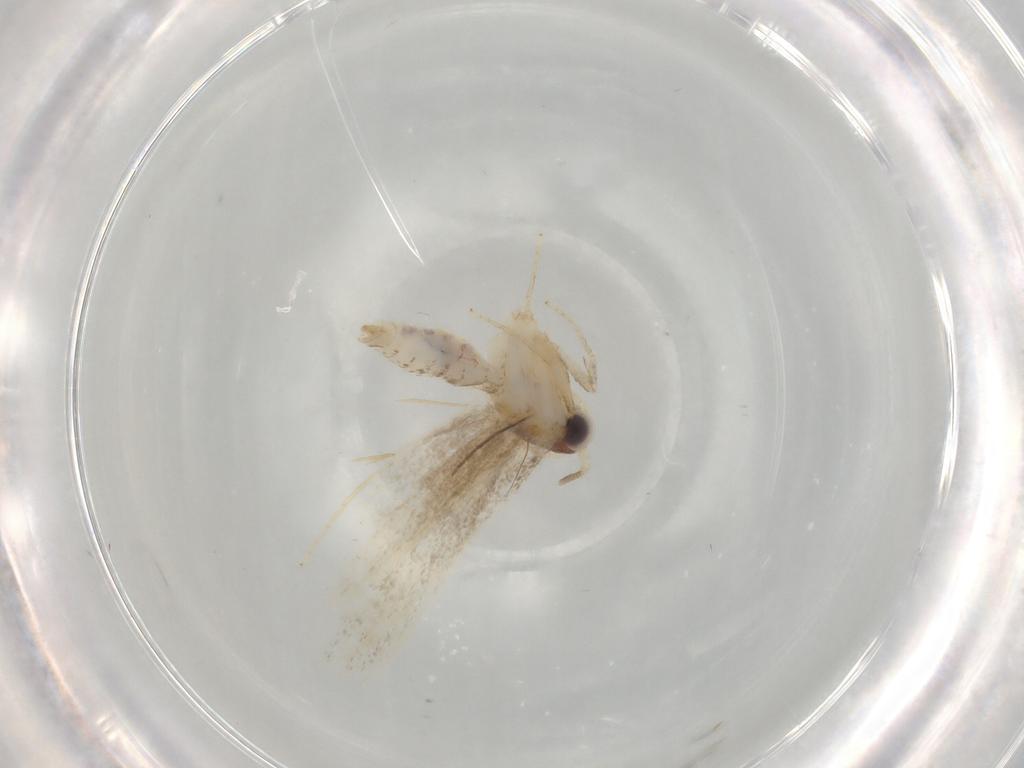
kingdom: Animalia
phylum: Arthropoda
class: Insecta
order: Lepidoptera
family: Nepticulidae
